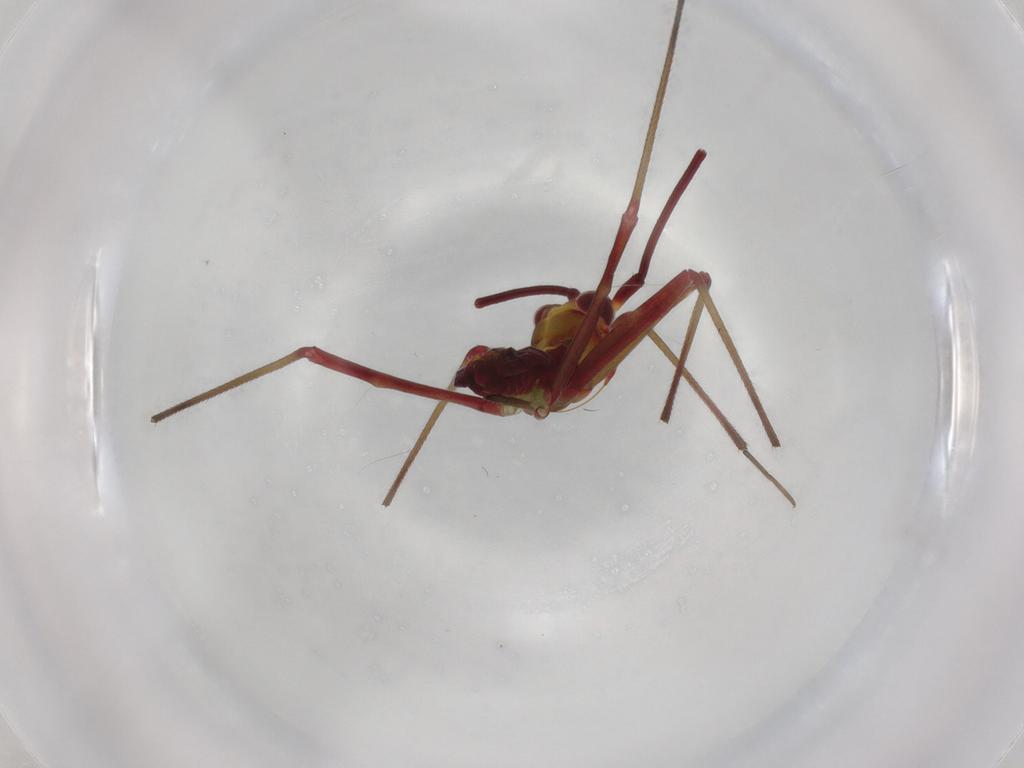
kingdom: Animalia
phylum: Arthropoda
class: Insecta
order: Hemiptera
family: Miridae
